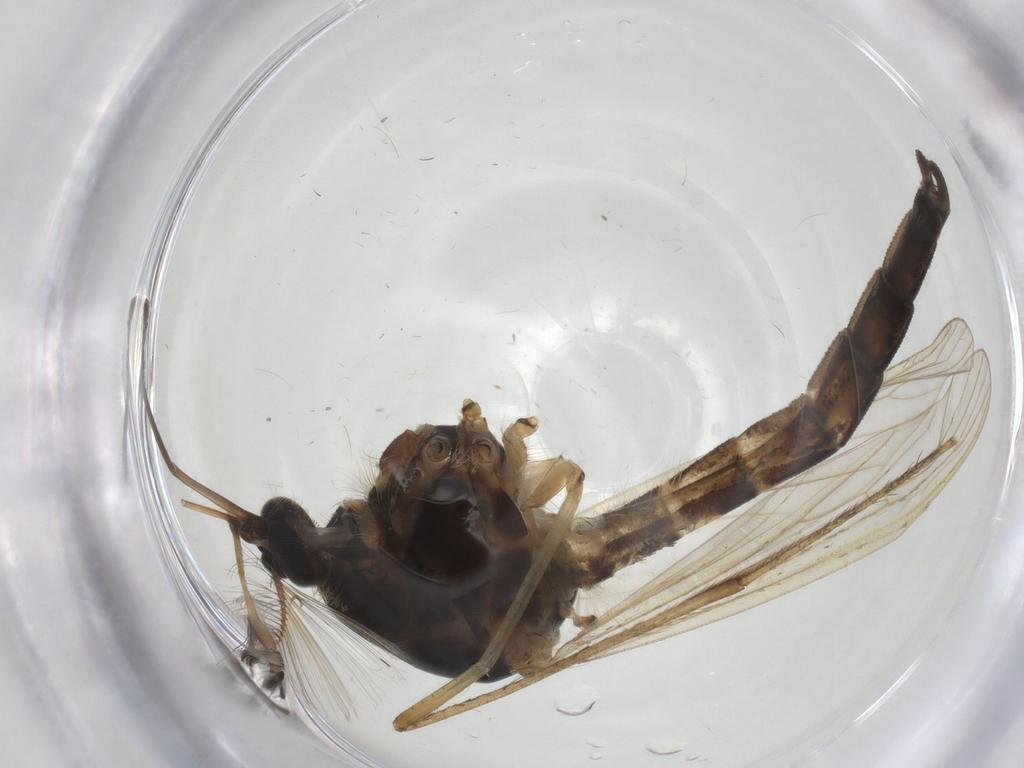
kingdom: Animalia
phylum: Arthropoda
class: Insecta
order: Diptera
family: Chironomidae
